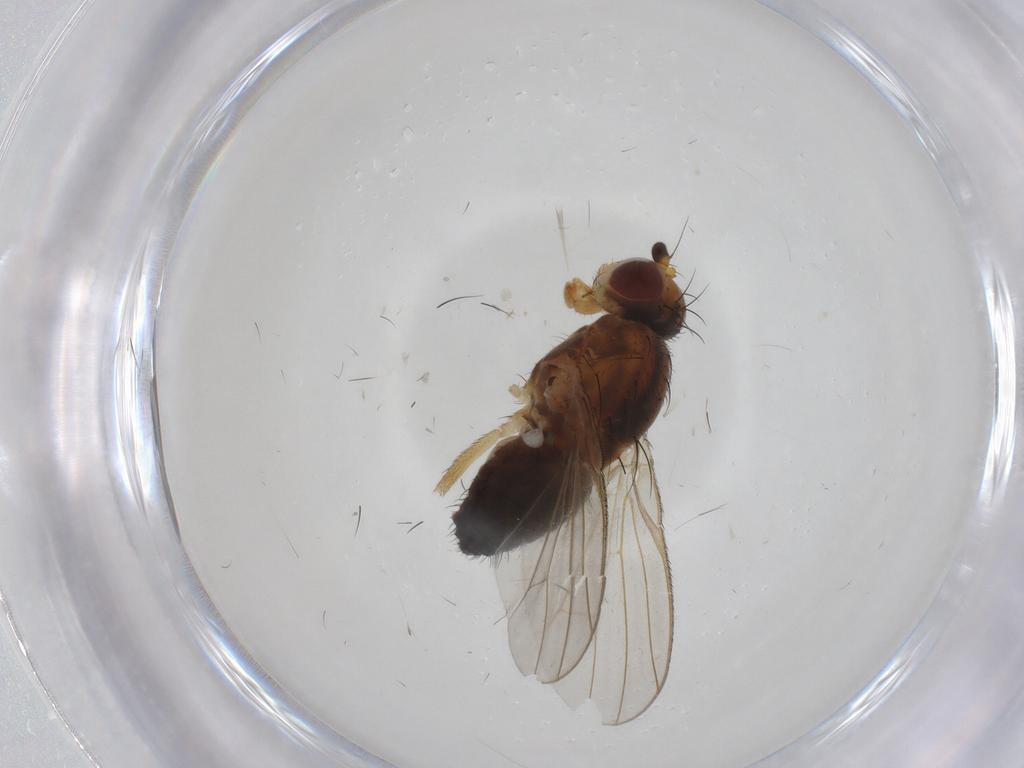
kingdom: Animalia
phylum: Arthropoda
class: Insecta
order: Diptera
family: Heleomyzidae
